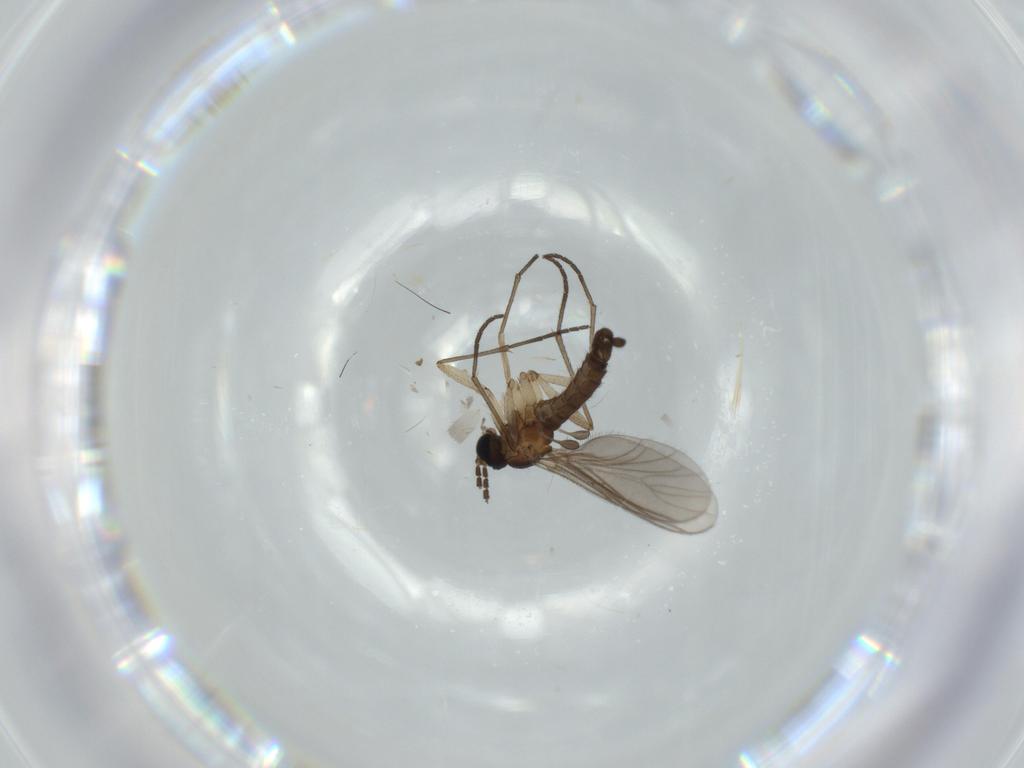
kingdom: Animalia
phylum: Arthropoda
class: Insecta
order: Diptera
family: Sciaridae
